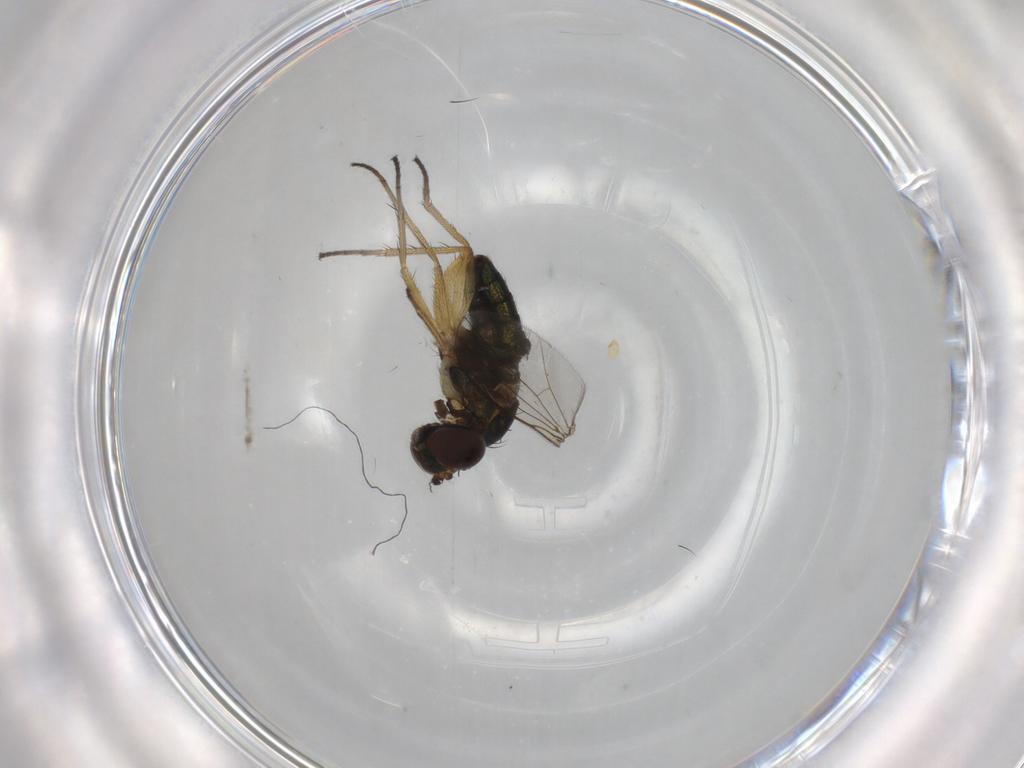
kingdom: Animalia
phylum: Arthropoda
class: Insecta
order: Diptera
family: Dolichopodidae
